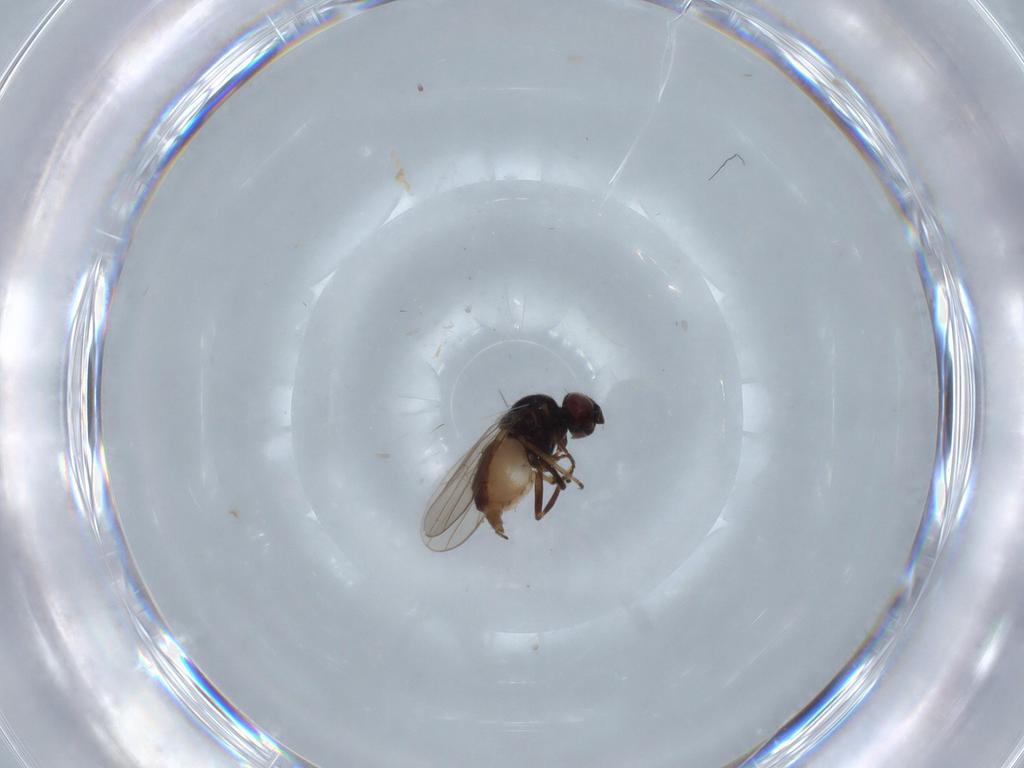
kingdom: Animalia
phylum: Arthropoda
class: Insecta
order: Diptera
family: Chloropidae
